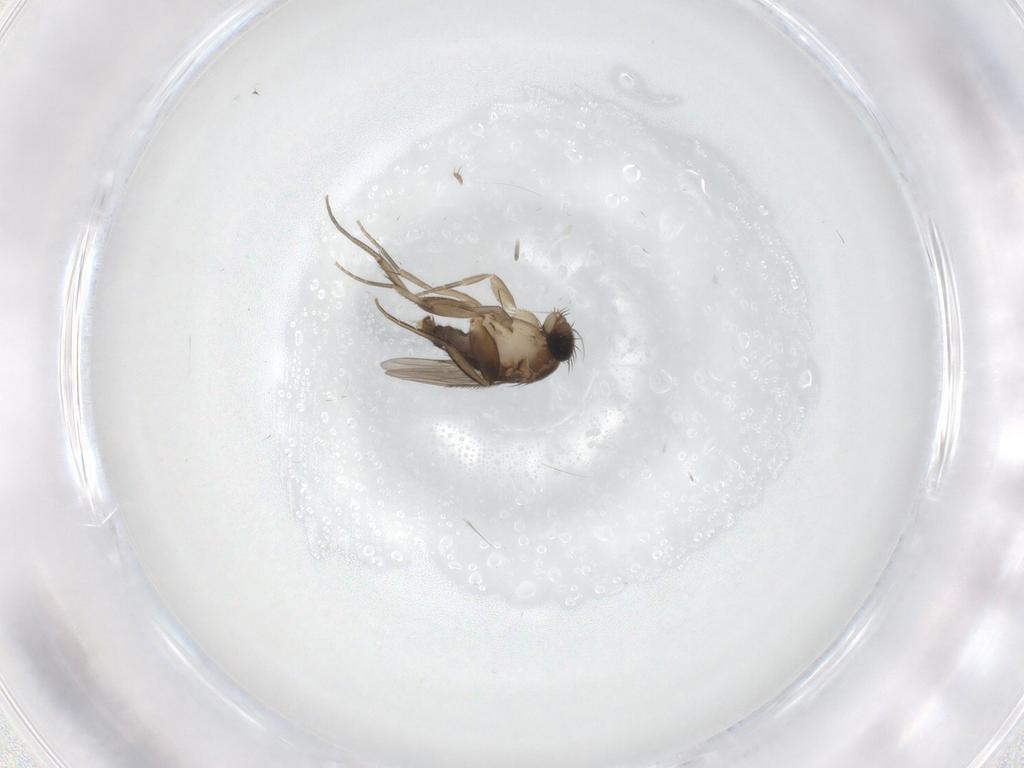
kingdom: Animalia
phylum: Arthropoda
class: Insecta
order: Diptera
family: Phoridae
